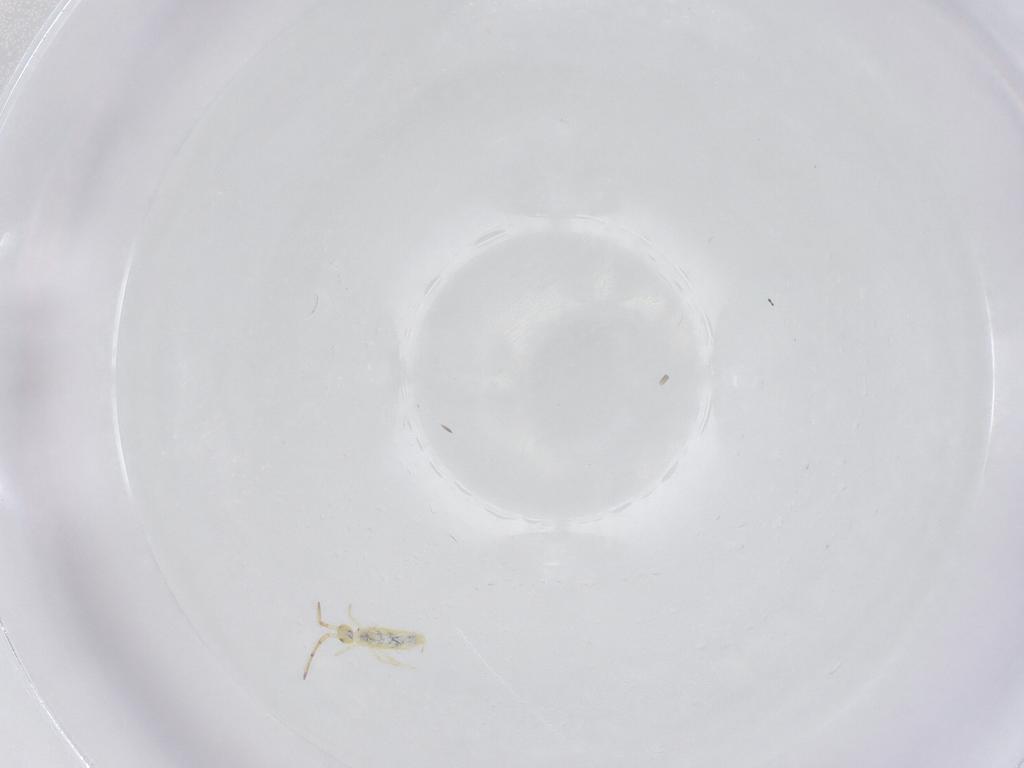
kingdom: Animalia
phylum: Arthropoda
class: Collembola
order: Entomobryomorpha
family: Paronellidae
